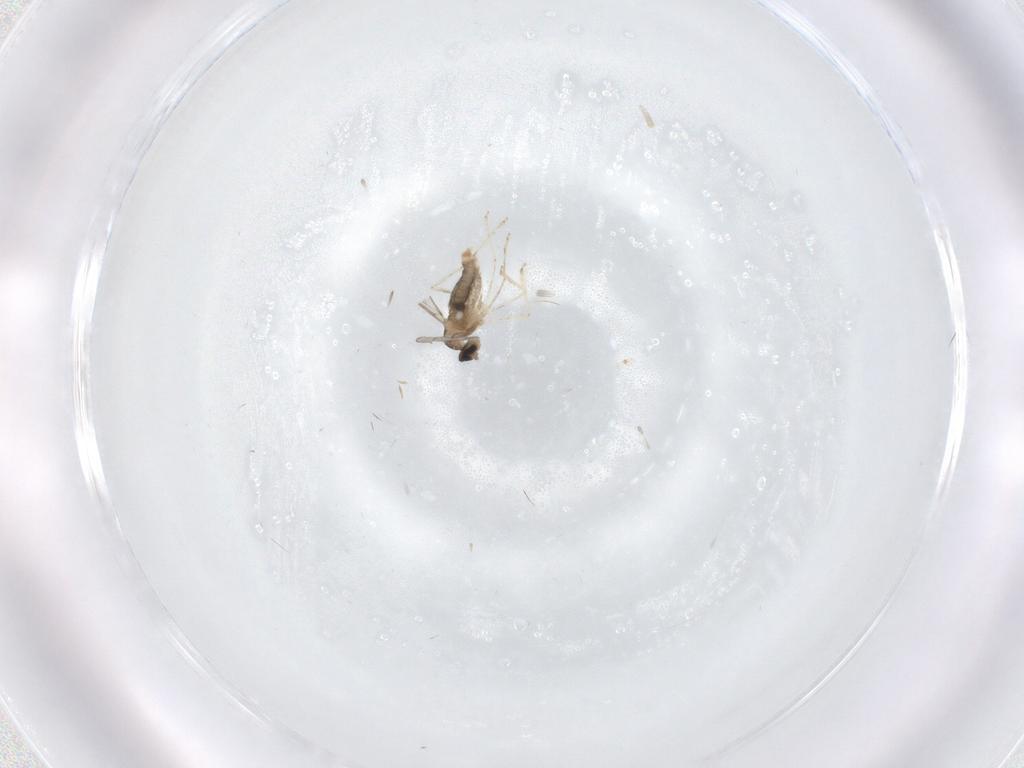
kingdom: Animalia
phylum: Arthropoda
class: Insecta
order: Diptera
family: Cecidomyiidae
